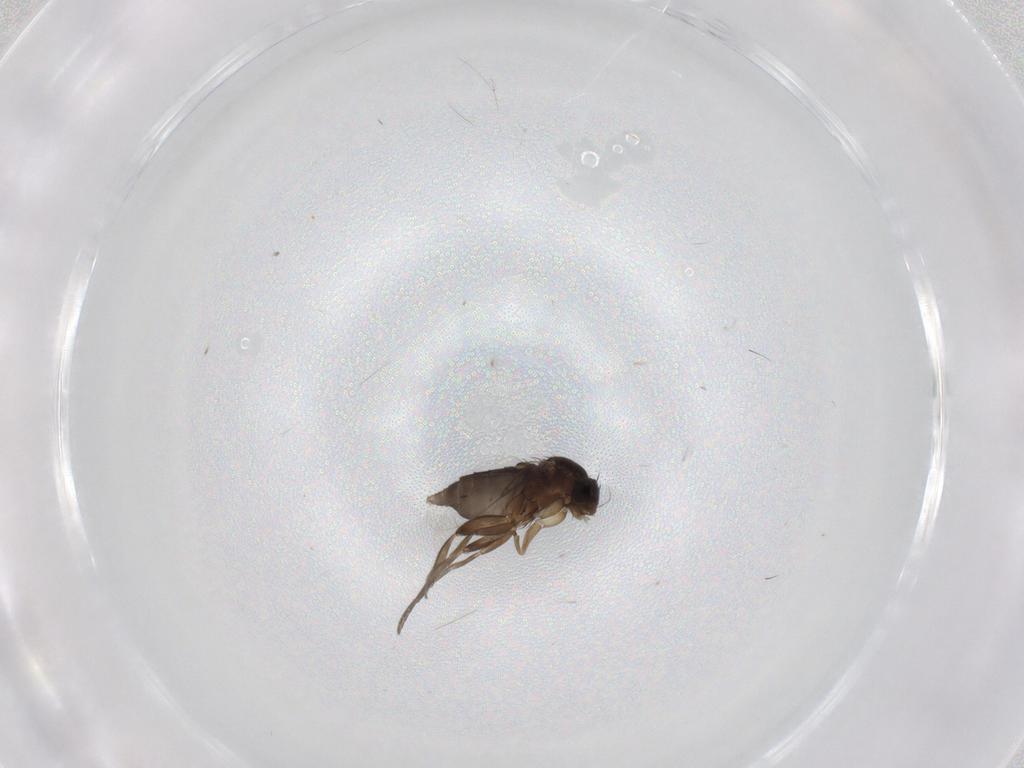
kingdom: Animalia
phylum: Arthropoda
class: Insecta
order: Diptera
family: Phoridae
